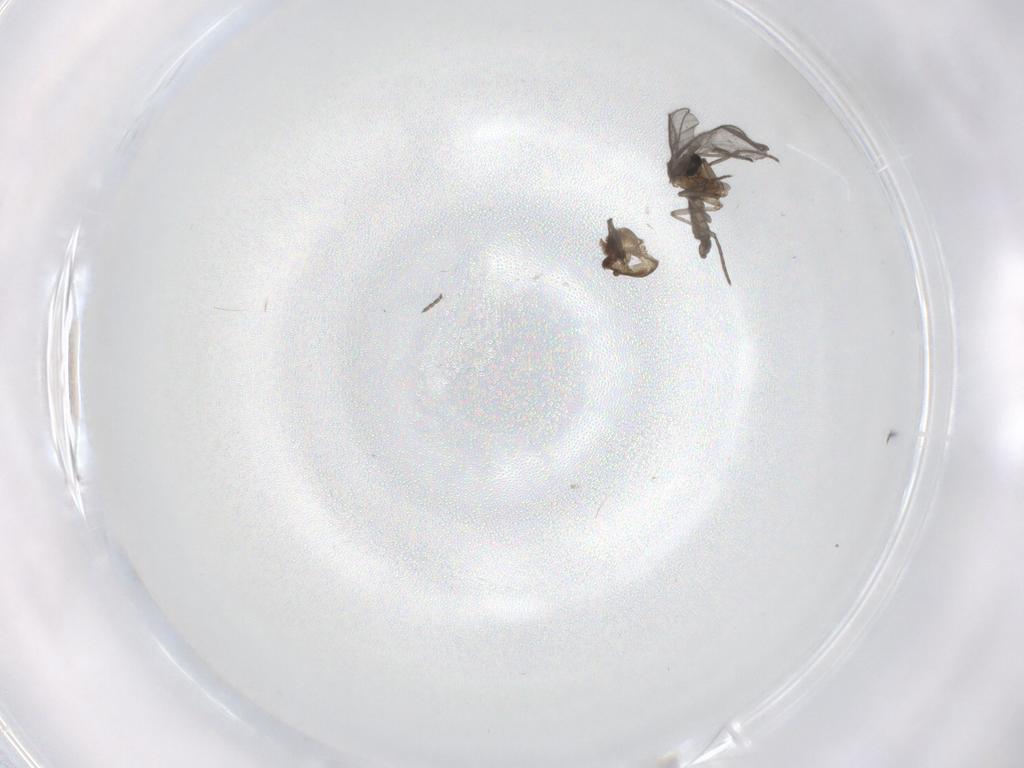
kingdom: Animalia
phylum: Arthropoda
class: Insecta
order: Diptera
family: Sciaridae
